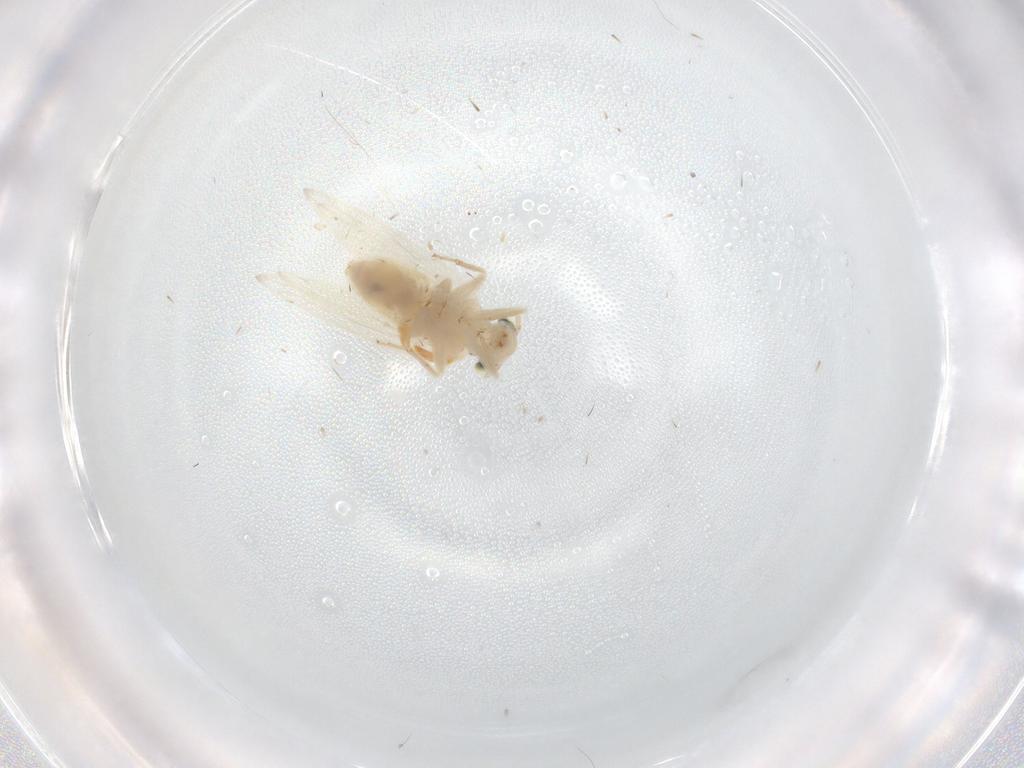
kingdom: Animalia
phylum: Arthropoda
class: Insecta
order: Psocodea
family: Lepidopsocidae
